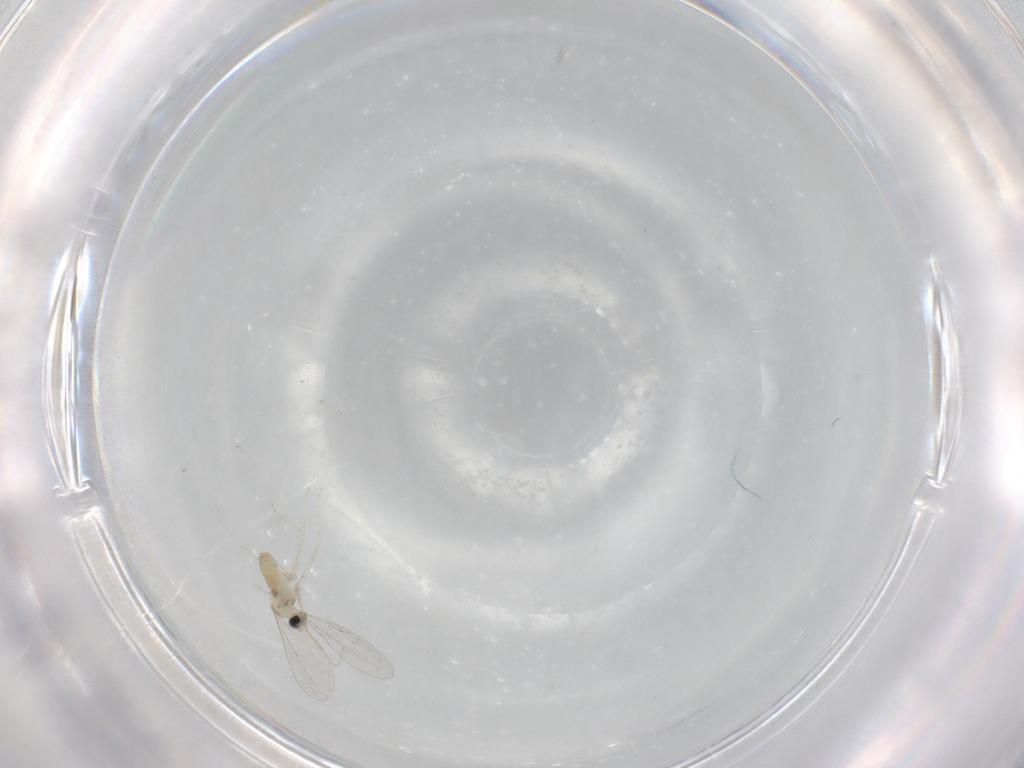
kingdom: Animalia
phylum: Arthropoda
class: Insecta
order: Diptera
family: Cecidomyiidae
